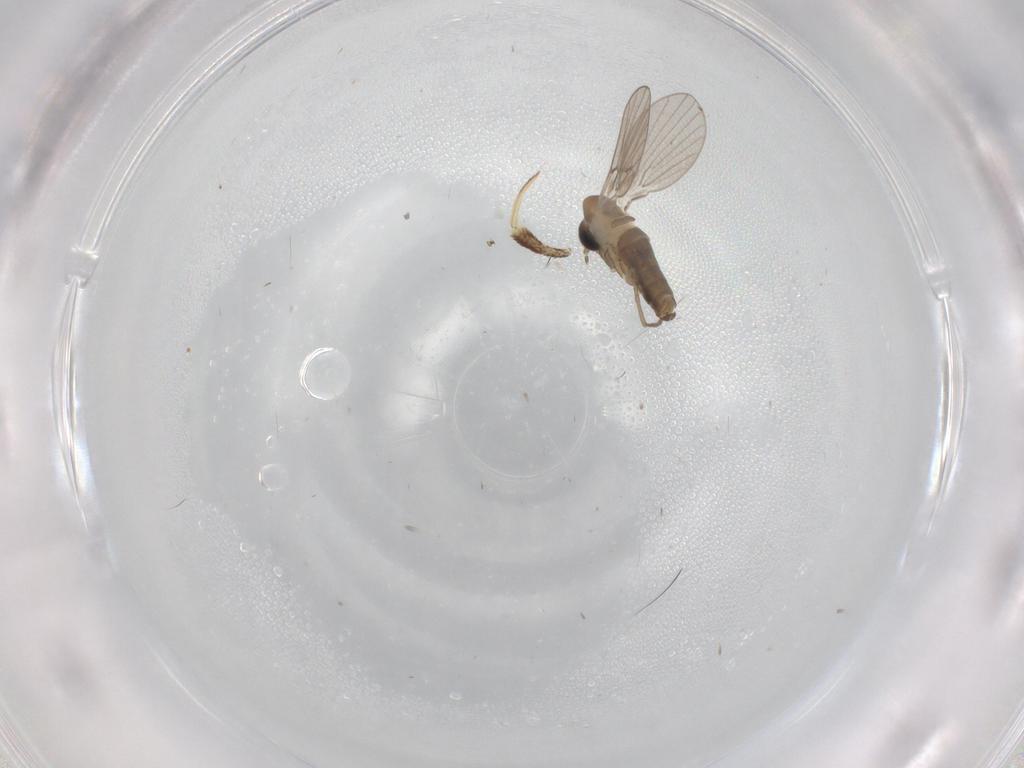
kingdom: Animalia
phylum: Arthropoda
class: Insecta
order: Diptera
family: Psychodidae
